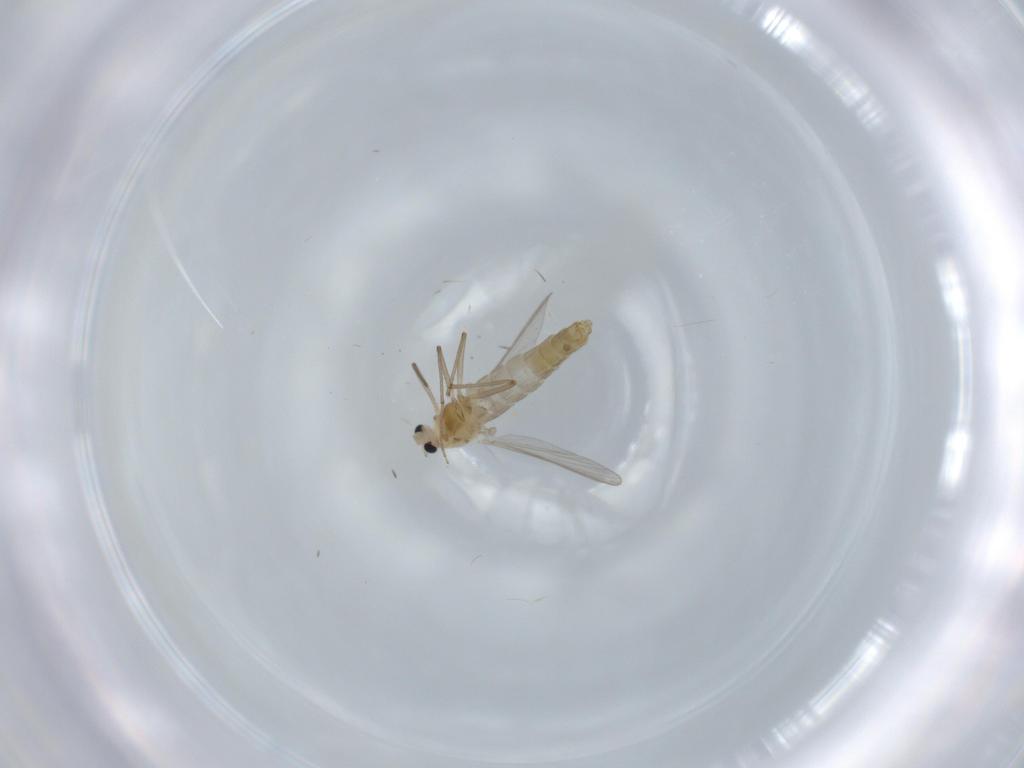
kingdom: Animalia
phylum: Arthropoda
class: Insecta
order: Diptera
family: Chironomidae
